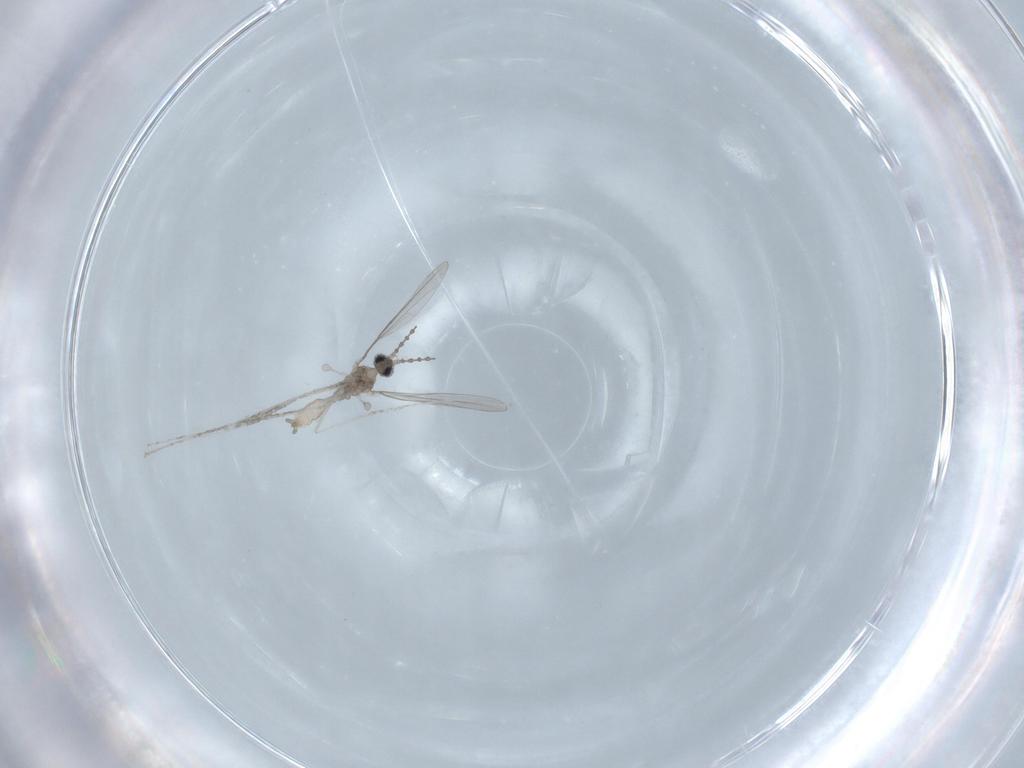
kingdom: Animalia
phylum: Arthropoda
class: Insecta
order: Diptera
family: Cecidomyiidae
